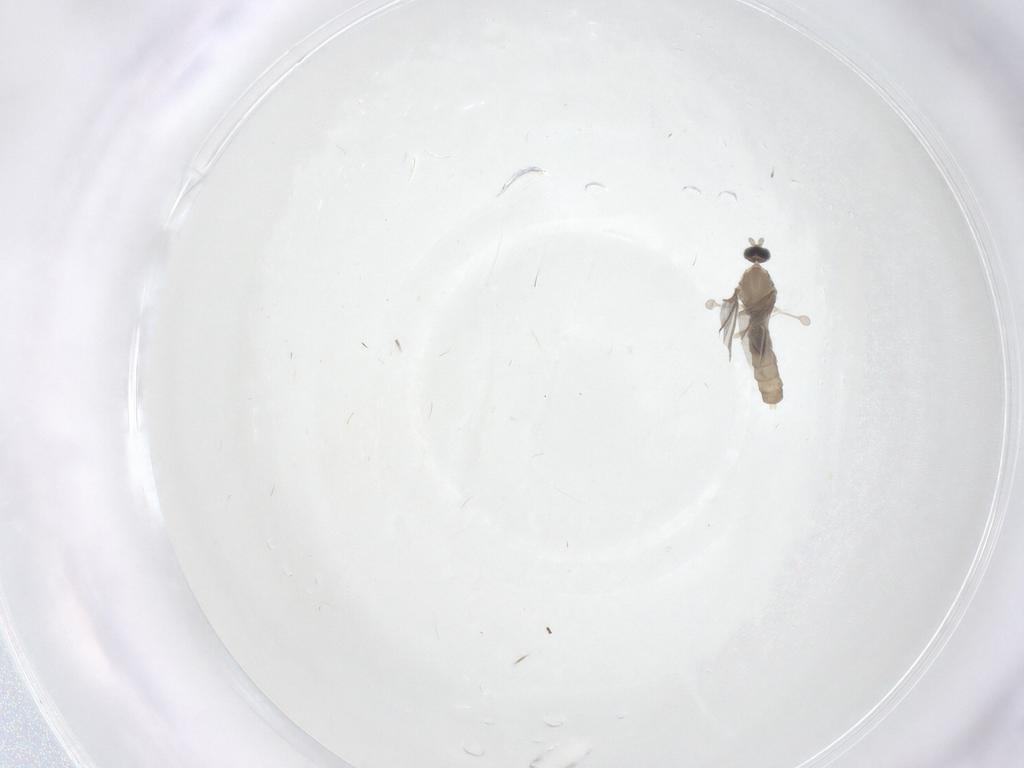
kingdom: Animalia
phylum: Arthropoda
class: Insecta
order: Diptera
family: Cecidomyiidae
